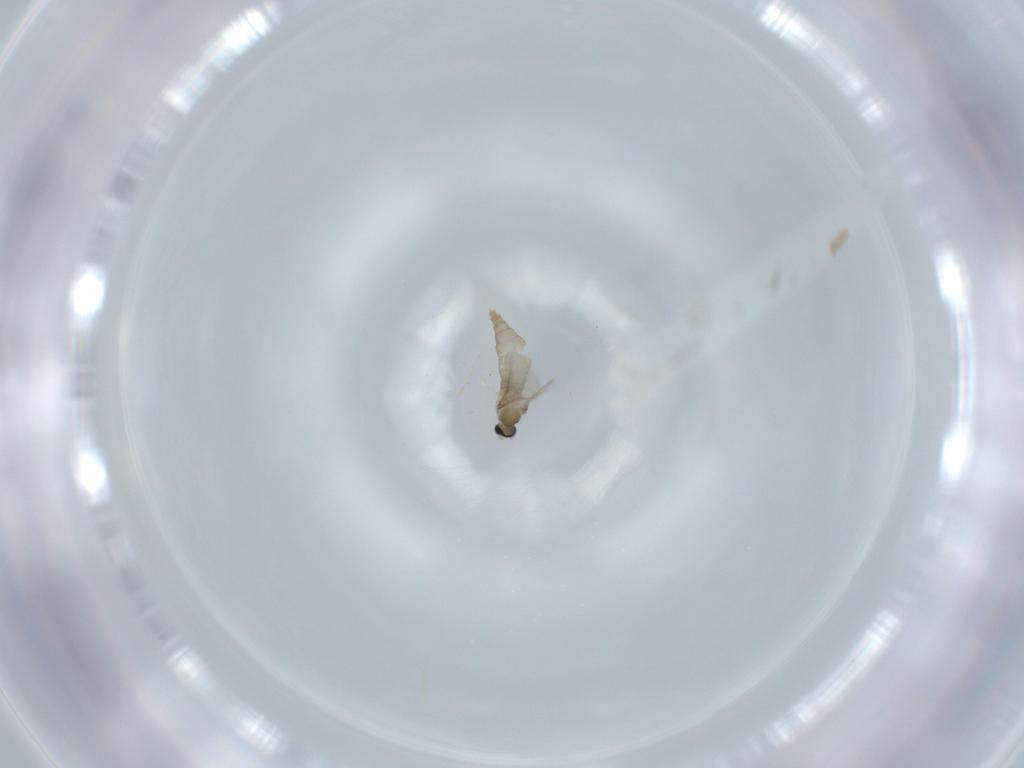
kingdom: Animalia
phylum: Arthropoda
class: Insecta
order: Diptera
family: Cecidomyiidae
